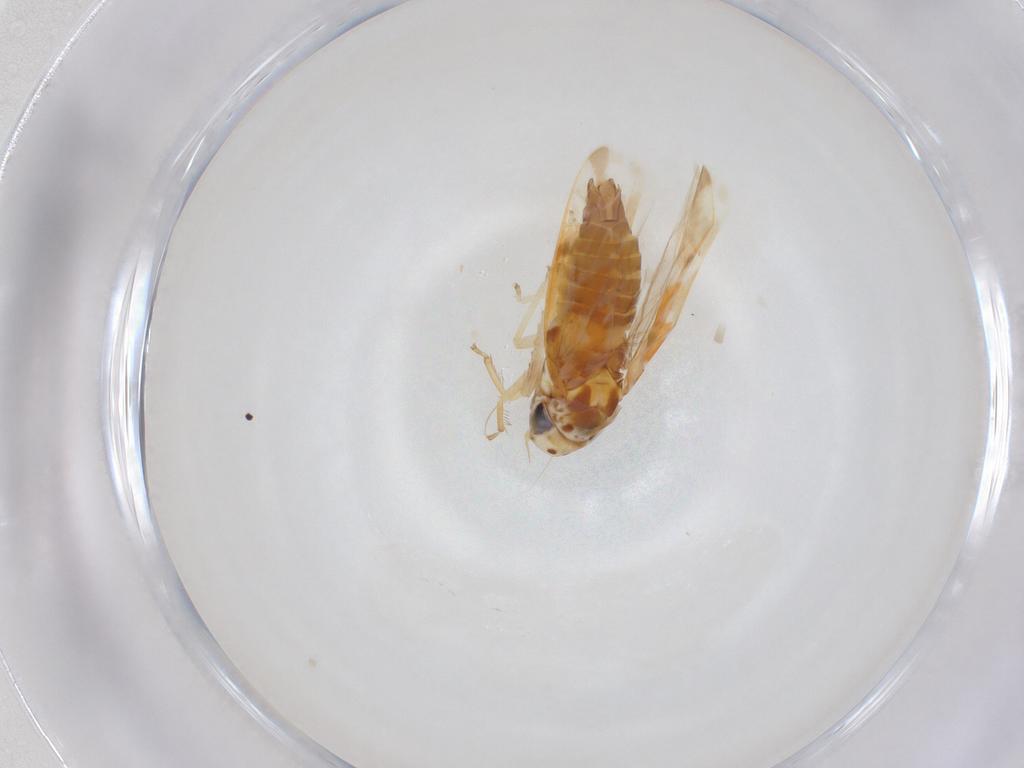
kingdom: Animalia
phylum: Arthropoda
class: Insecta
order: Hemiptera
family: Cicadellidae
